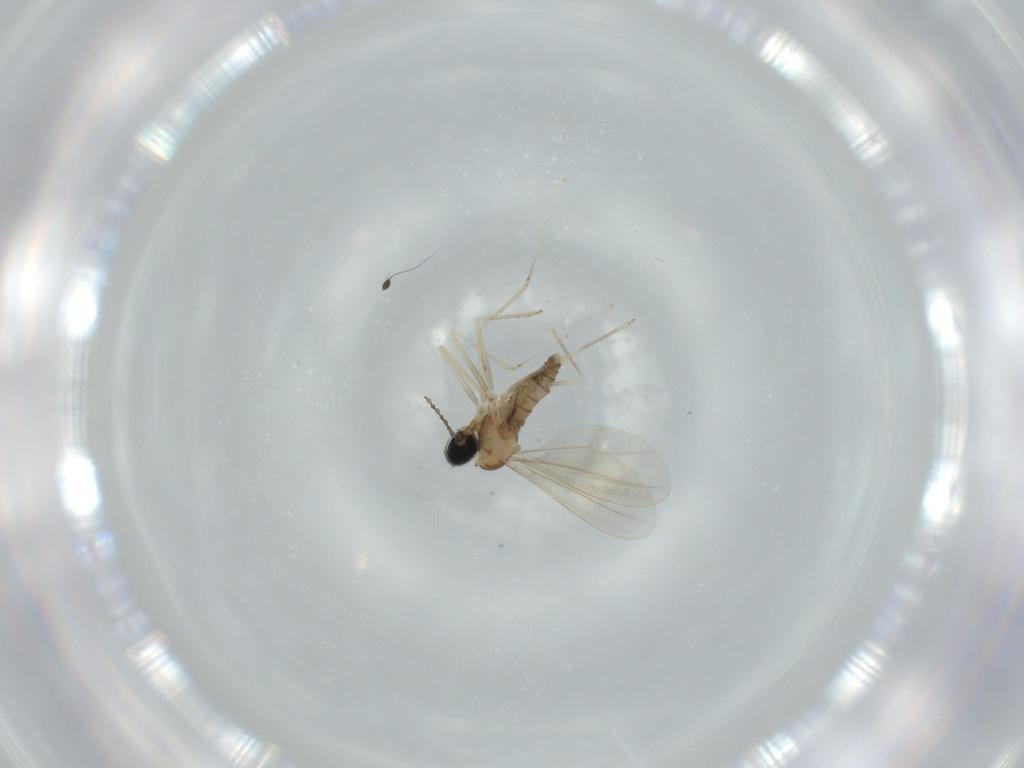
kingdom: Animalia
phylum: Arthropoda
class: Insecta
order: Diptera
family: Cecidomyiidae
